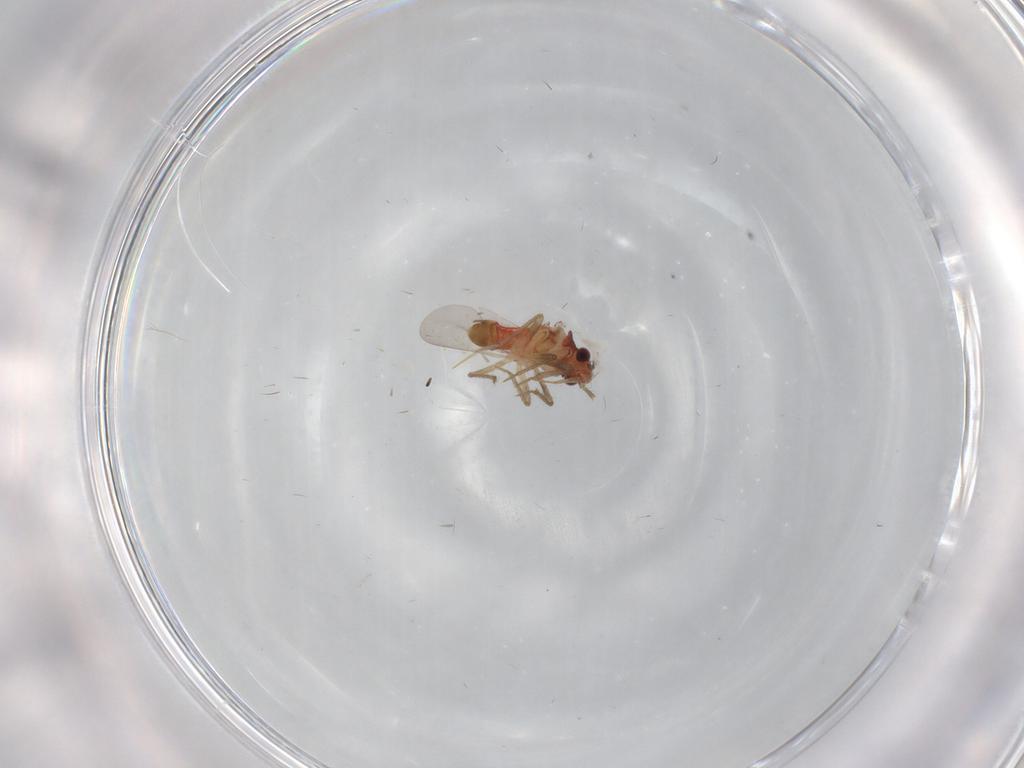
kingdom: Animalia
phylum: Arthropoda
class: Insecta
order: Hemiptera
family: Ceratocombidae
